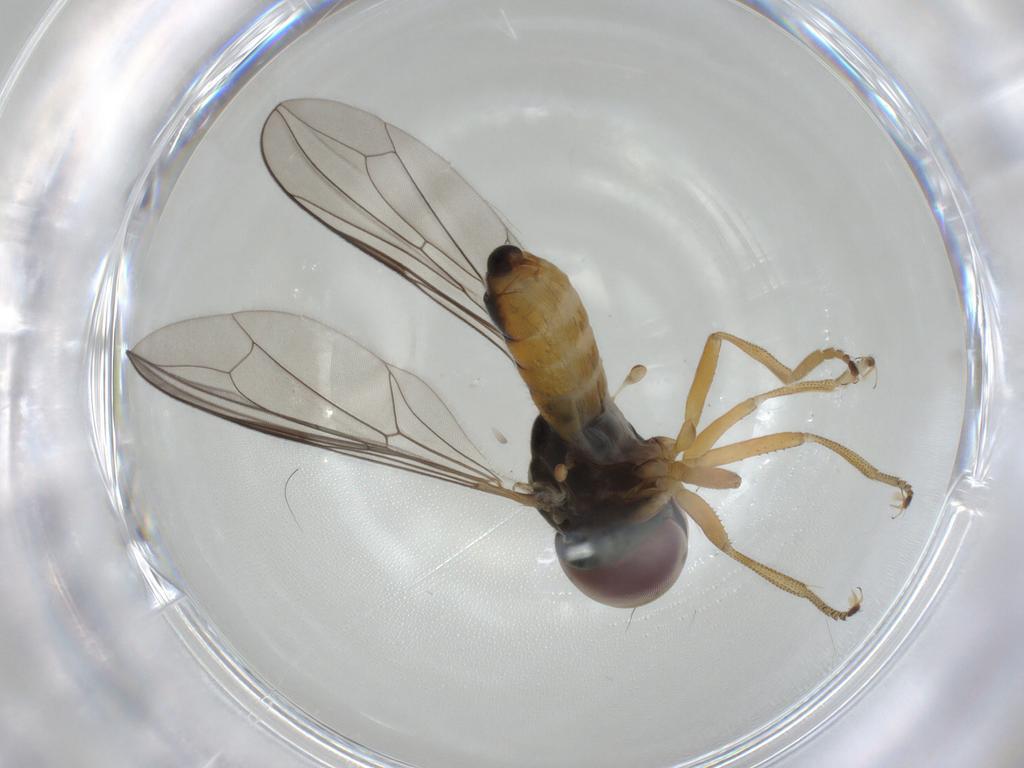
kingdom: Animalia
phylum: Arthropoda
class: Insecta
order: Diptera
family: Pipunculidae
